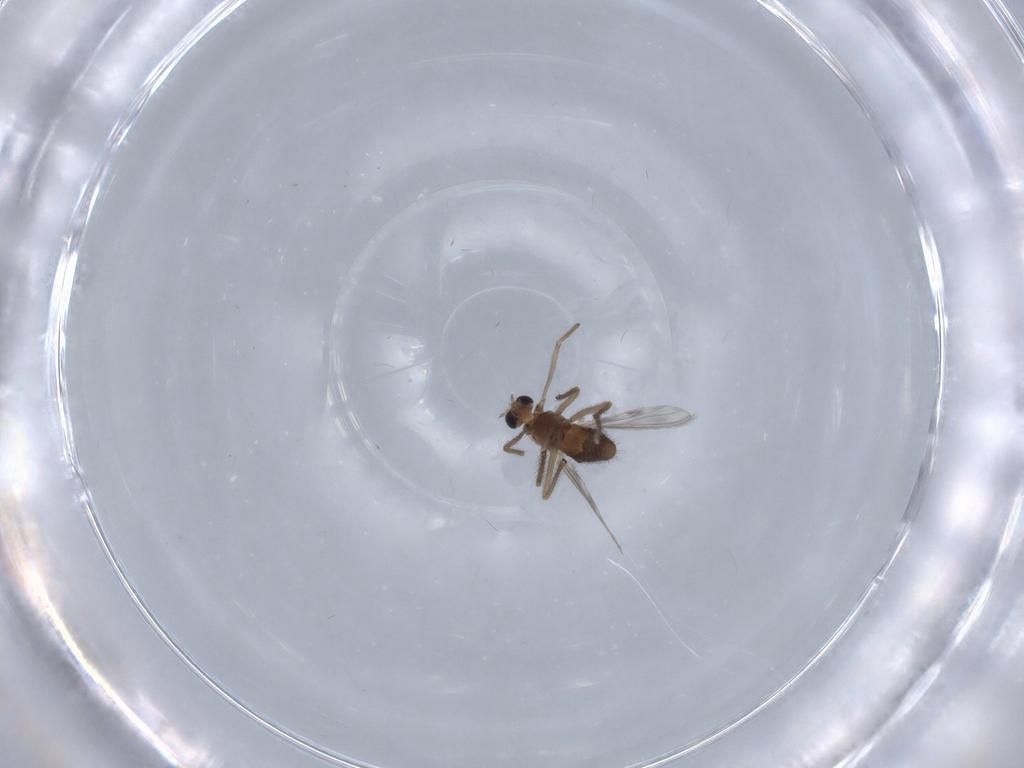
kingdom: Animalia
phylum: Arthropoda
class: Insecta
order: Diptera
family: Chironomidae
